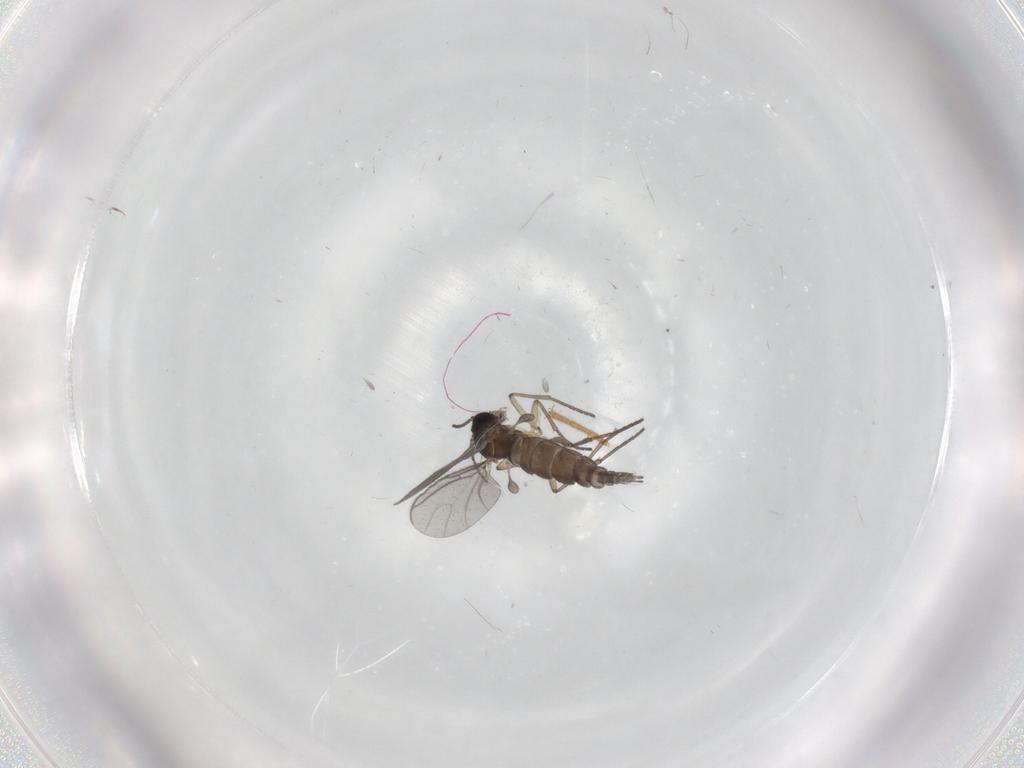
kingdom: Animalia
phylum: Arthropoda
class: Insecta
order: Diptera
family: Sciaridae
